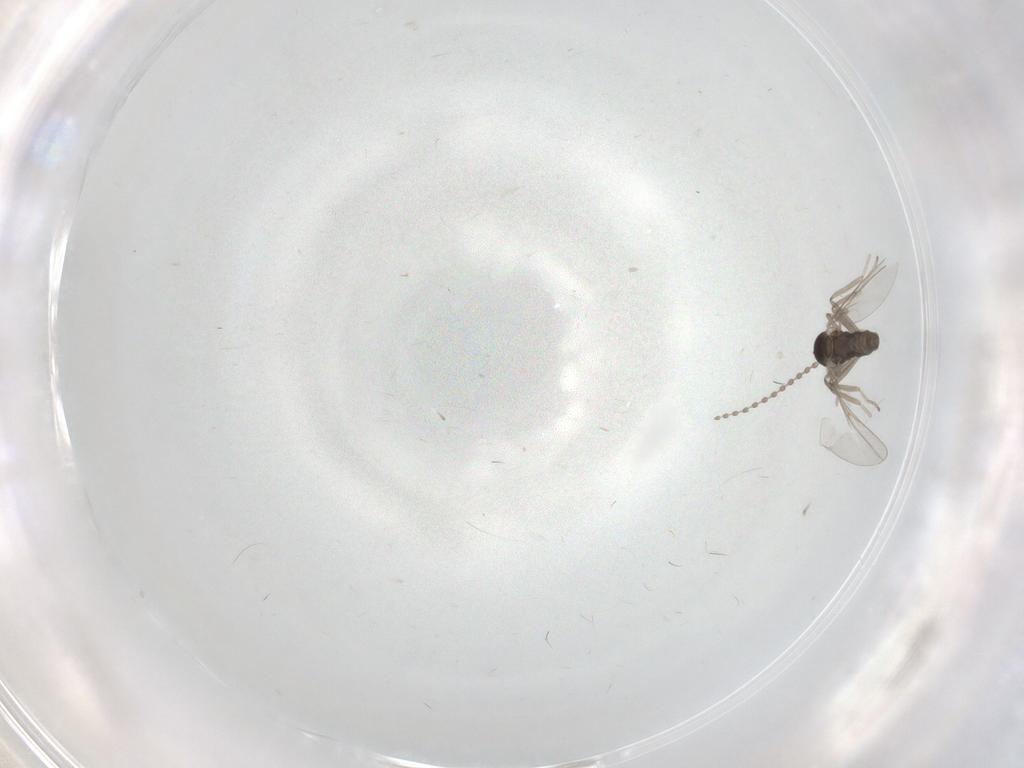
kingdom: Animalia
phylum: Arthropoda
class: Insecta
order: Diptera
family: Cecidomyiidae
